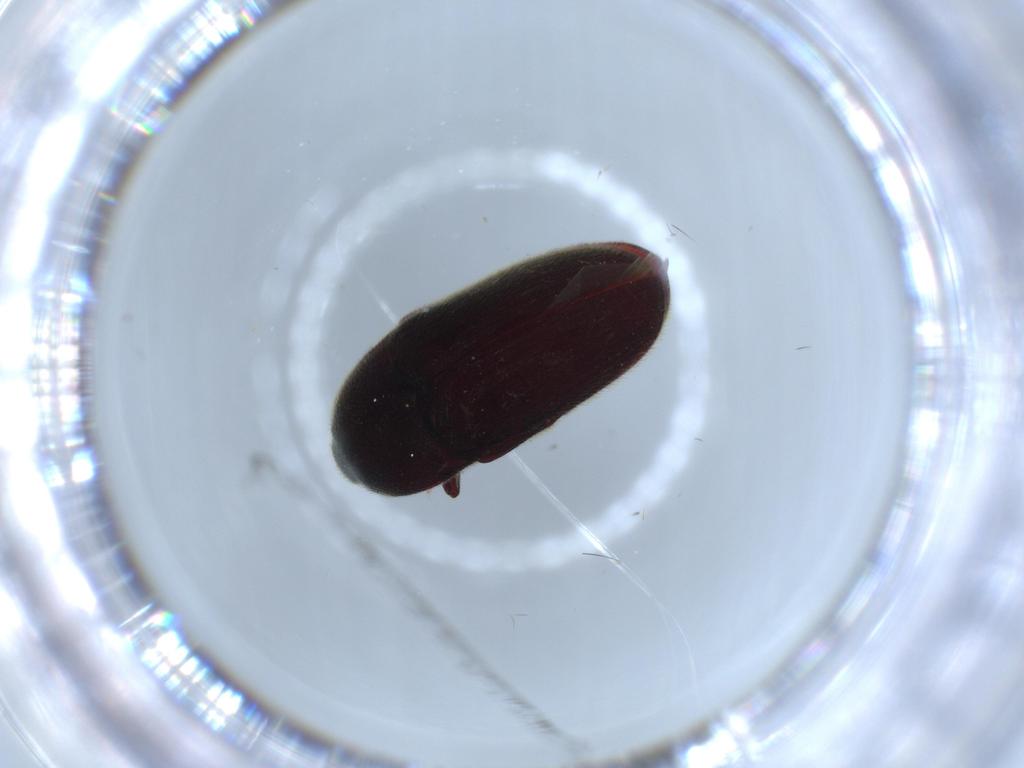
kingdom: Animalia
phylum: Arthropoda
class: Insecta
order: Coleoptera
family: Throscidae
